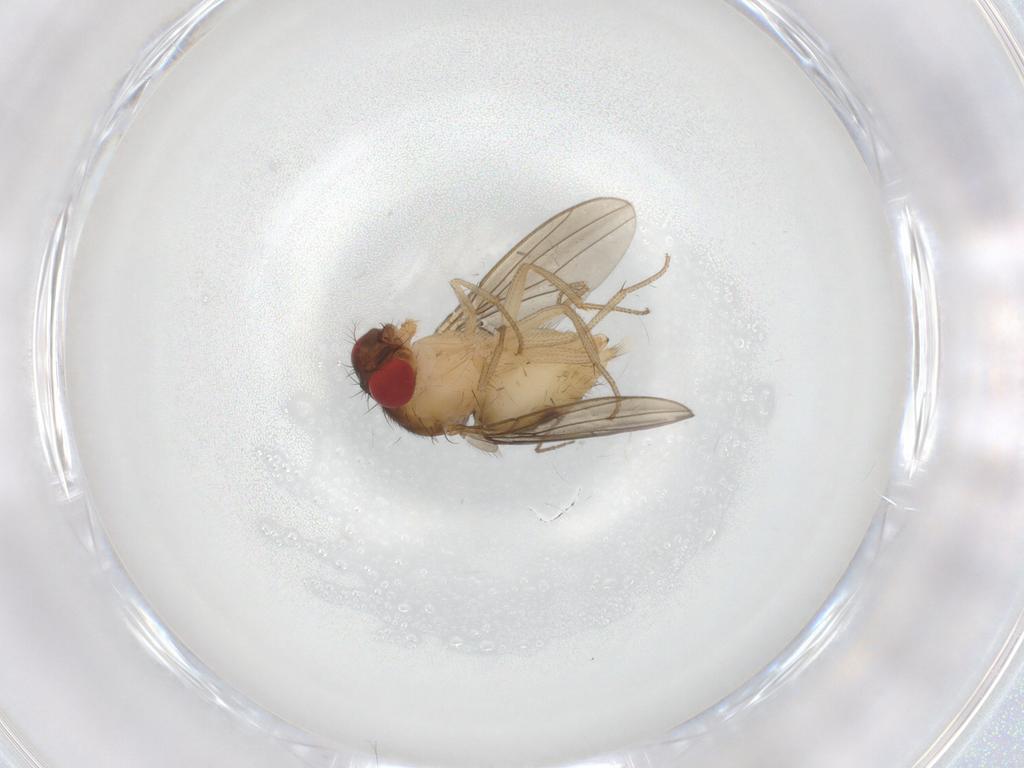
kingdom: Animalia
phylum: Arthropoda
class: Insecta
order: Diptera
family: Drosophilidae
